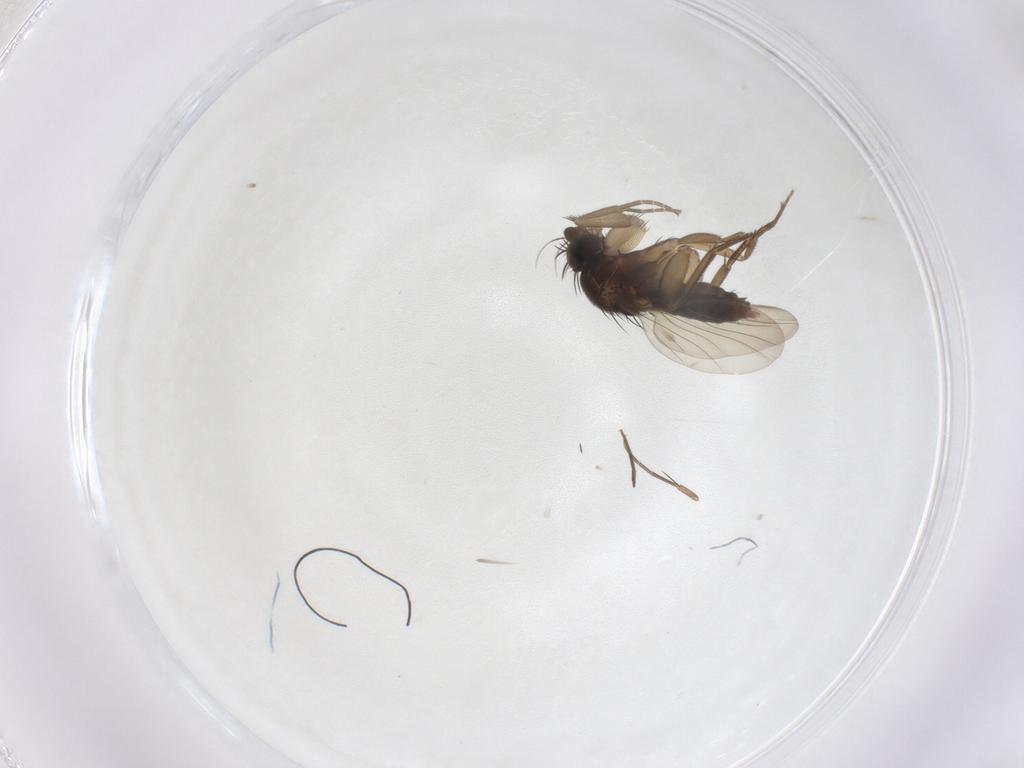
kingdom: Animalia
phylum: Arthropoda
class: Insecta
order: Diptera
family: Phoridae
